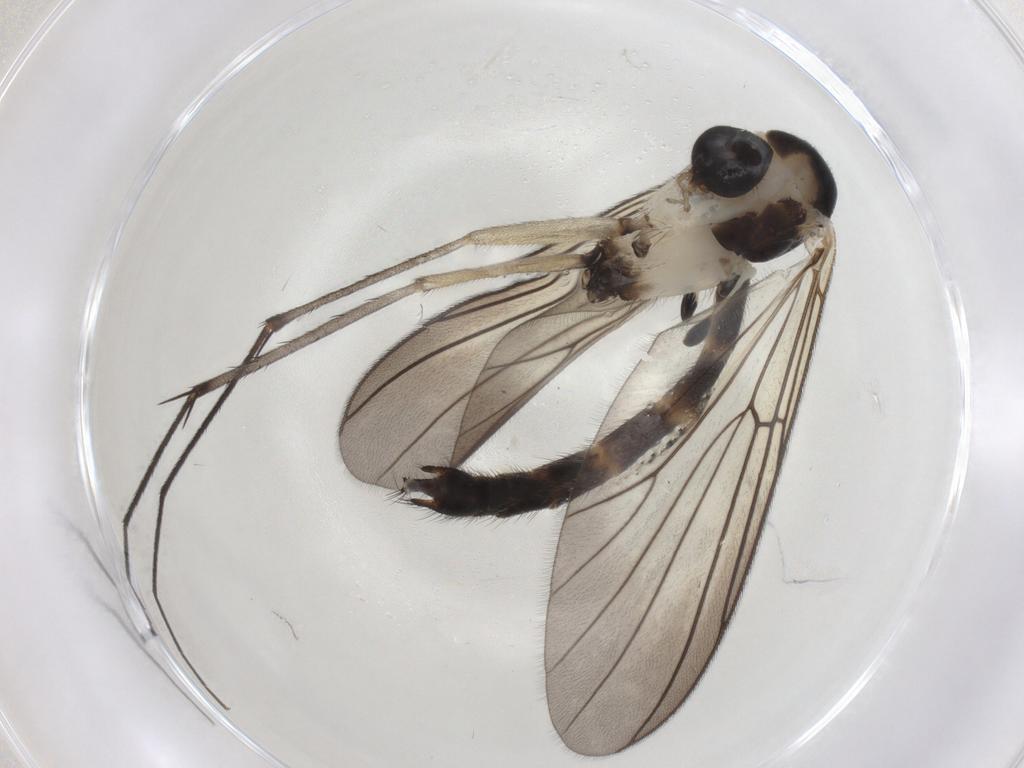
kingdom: Animalia
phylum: Arthropoda
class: Insecta
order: Diptera
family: Mycetophilidae
